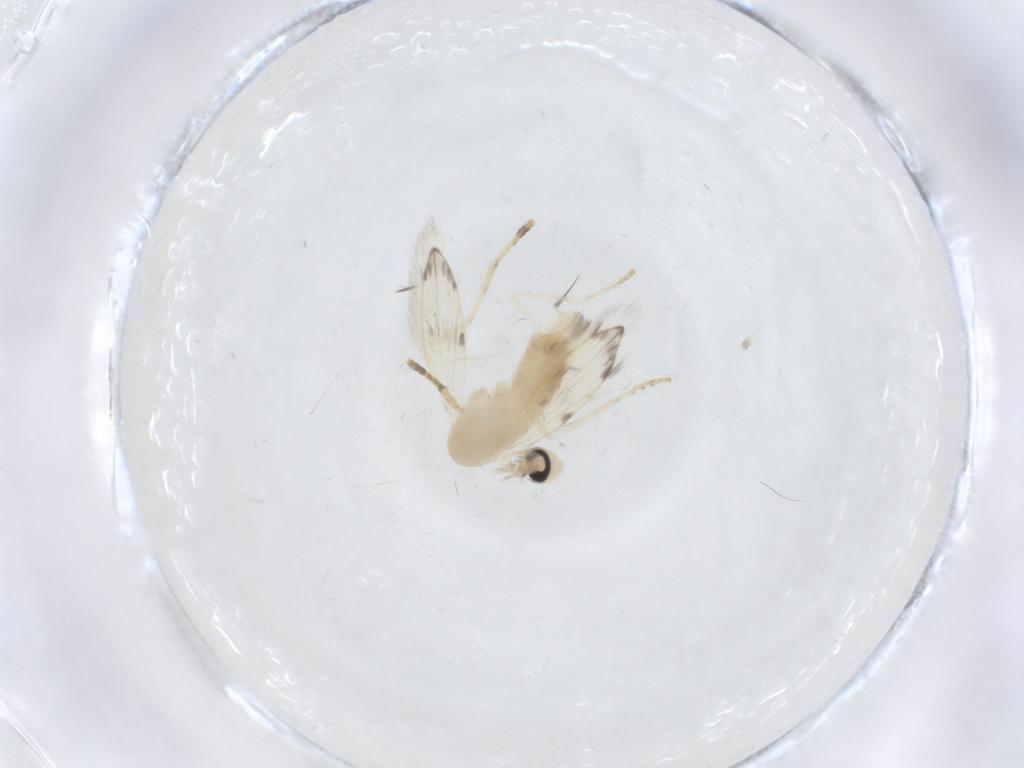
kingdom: Animalia
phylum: Arthropoda
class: Insecta
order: Diptera
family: Psychodidae
